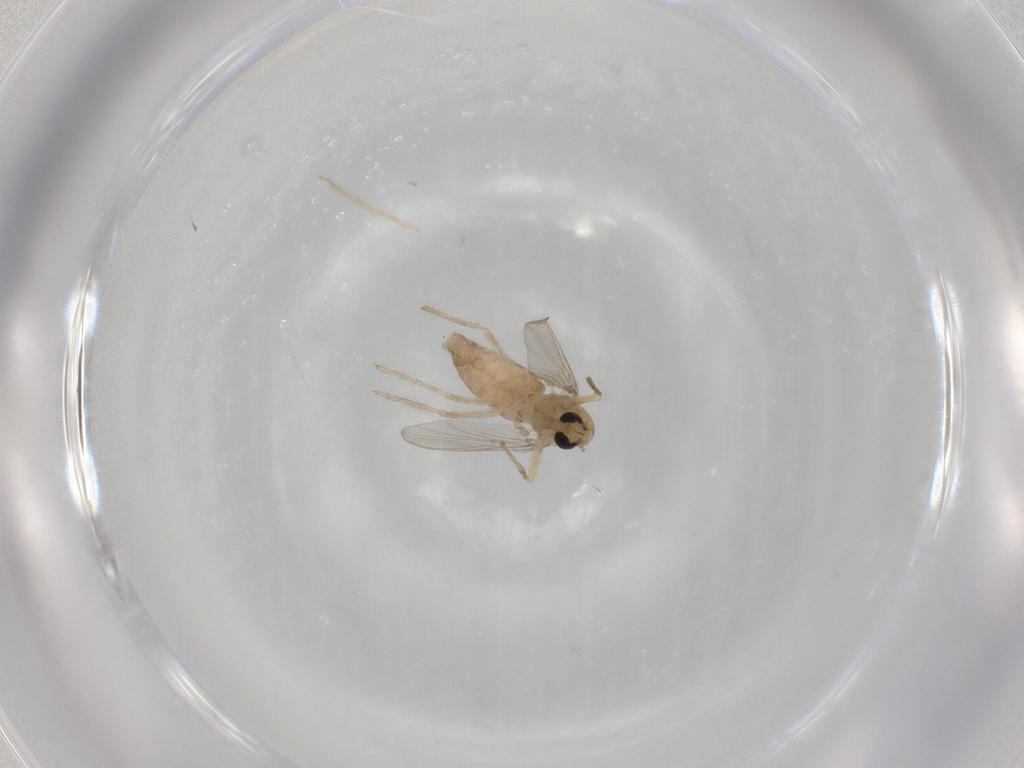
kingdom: Animalia
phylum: Arthropoda
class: Insecta
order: Diptera
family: Chironomidae
